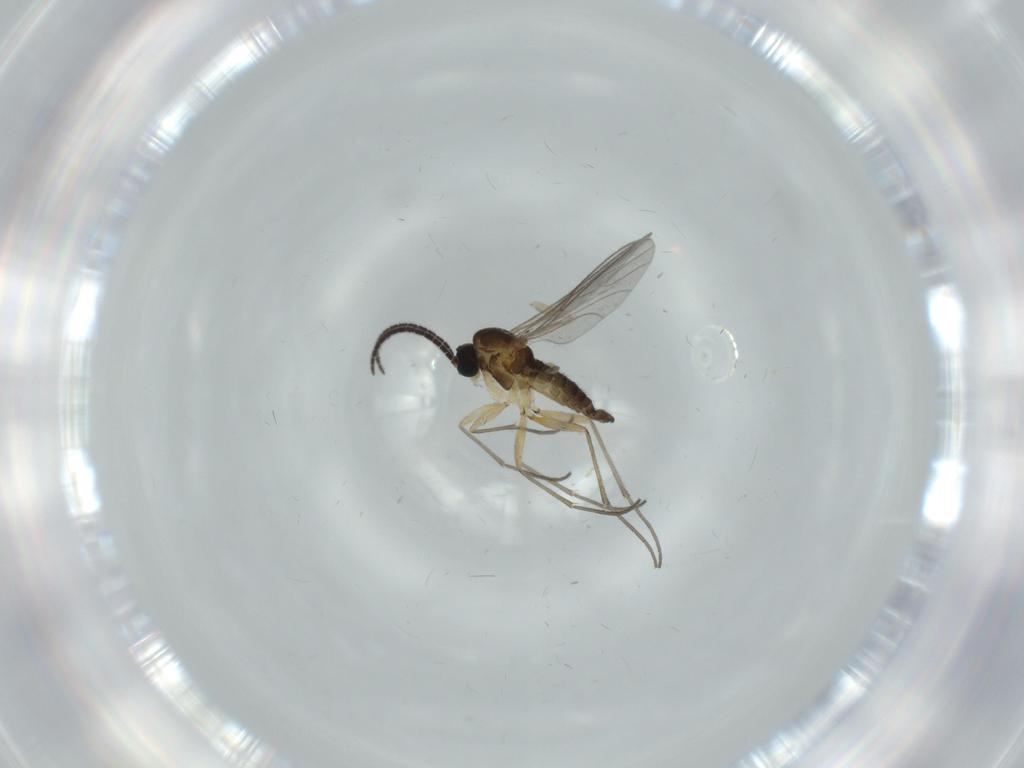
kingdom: Animalia
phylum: Arthropoda
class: Insecta
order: Diptera
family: Sciaridae
